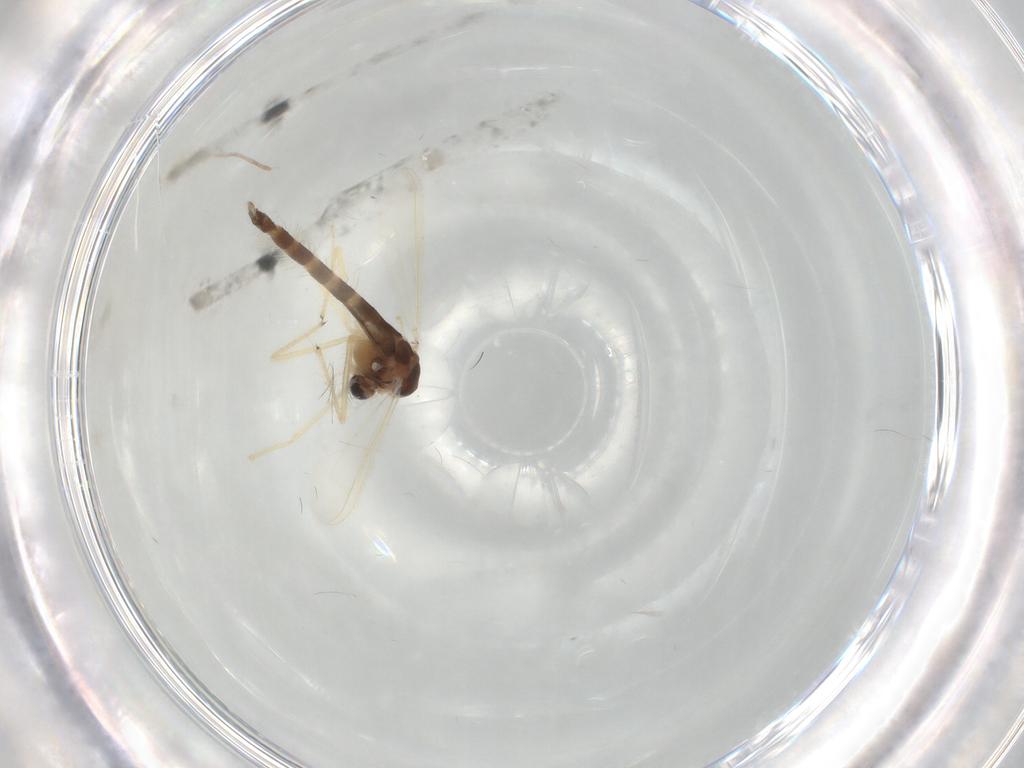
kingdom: Animalia
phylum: Arthropoda
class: Insecta
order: Diptera
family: Chironomidae
